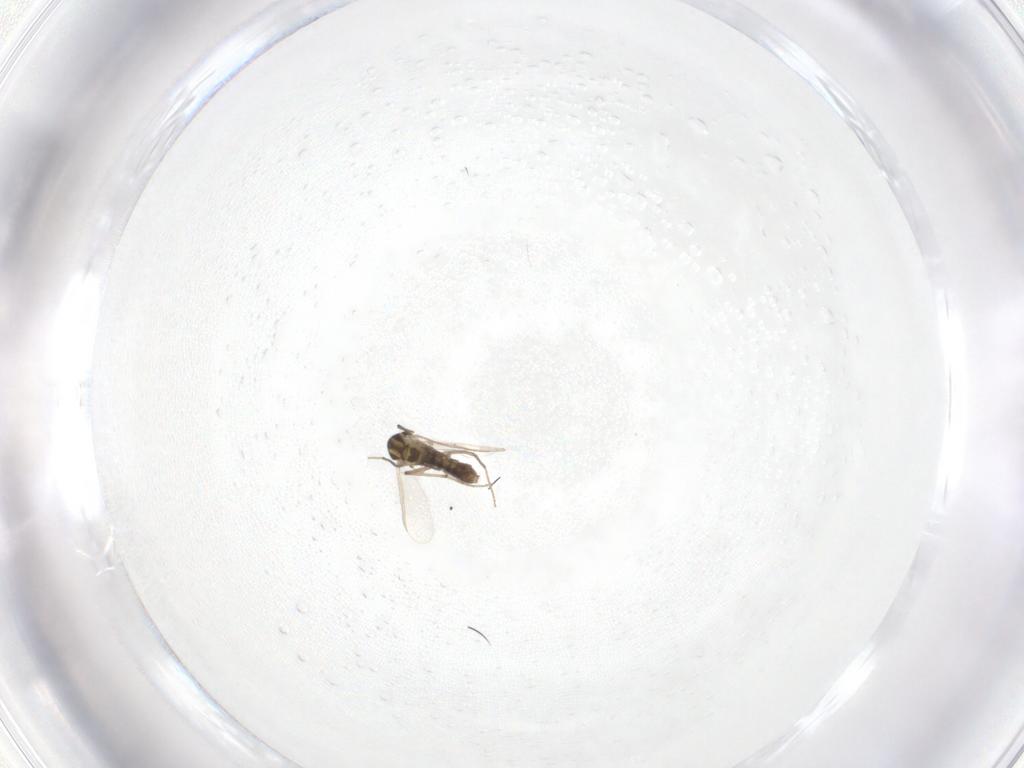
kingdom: Animalia
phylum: Arthropoda
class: Insecta
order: Diptera
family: Chironomidae
